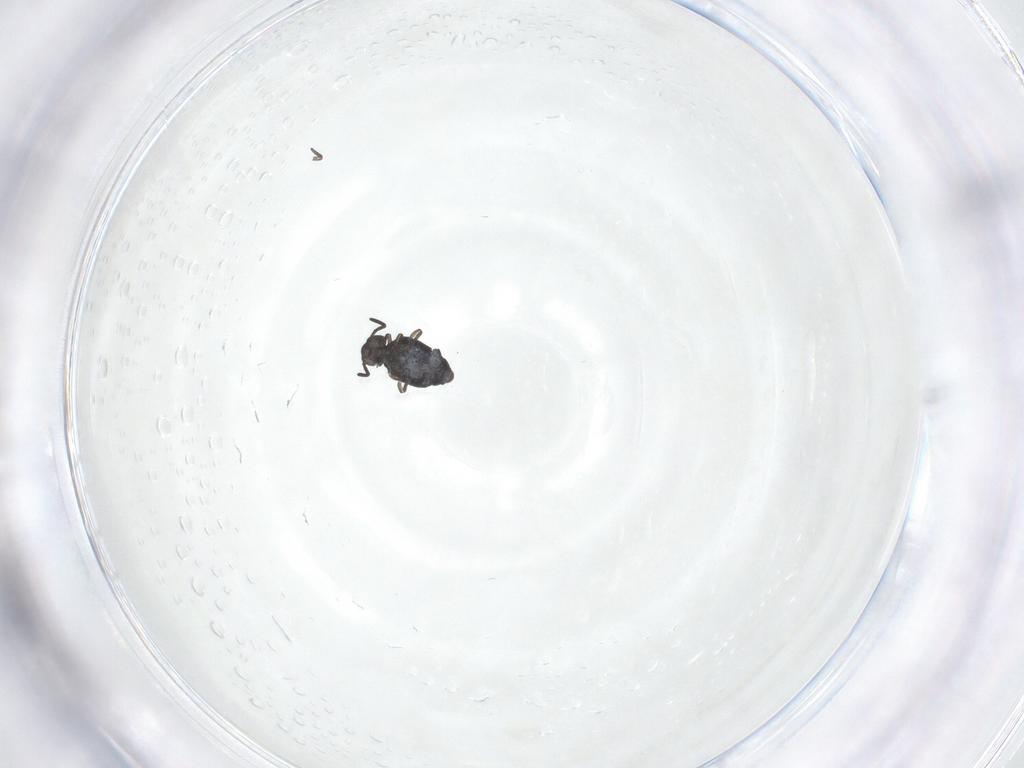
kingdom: Animalia
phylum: Arthropoda
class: Collembola
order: Symphypleona
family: Katiannidae
